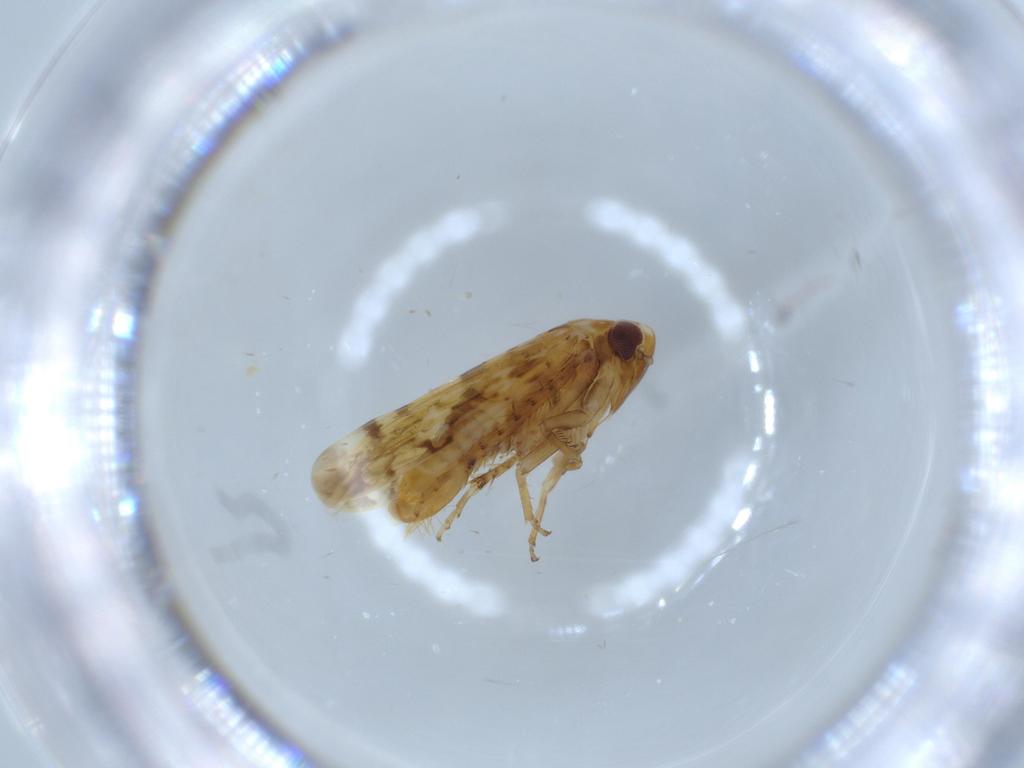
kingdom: Animalia
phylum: Arthropoda
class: Insecta
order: Hemiptera
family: Cicadellidae
